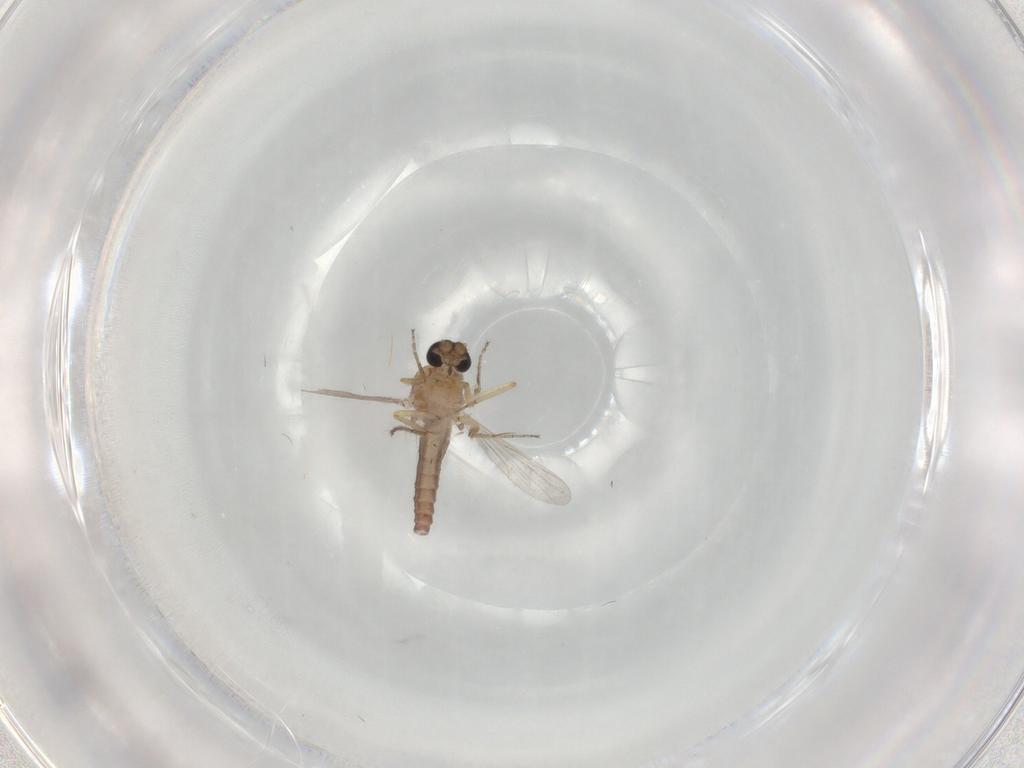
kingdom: Animalia
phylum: Arthropoda
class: Insecta
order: Diptera
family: Ceratopogonidae
